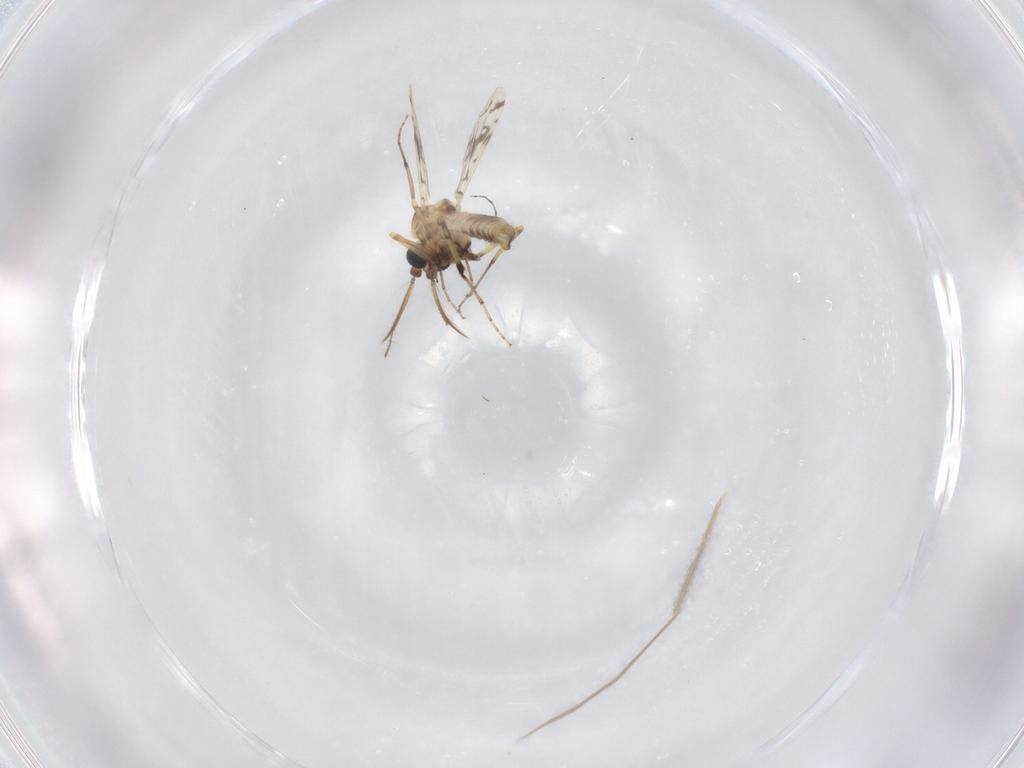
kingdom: Animalia
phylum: Arthropoda
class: Insecta
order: Diptera
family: Ceratopogonidae
